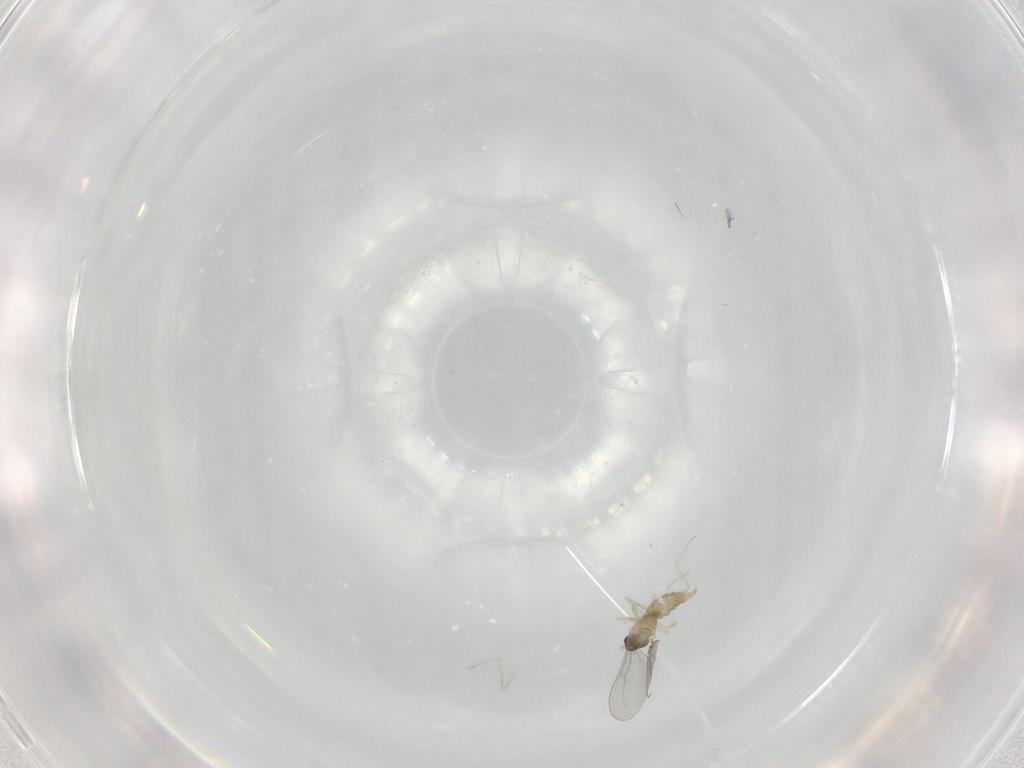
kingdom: Animalia
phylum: Arthropoda
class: Insecta
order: Diptera
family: Cecidomyiidae
